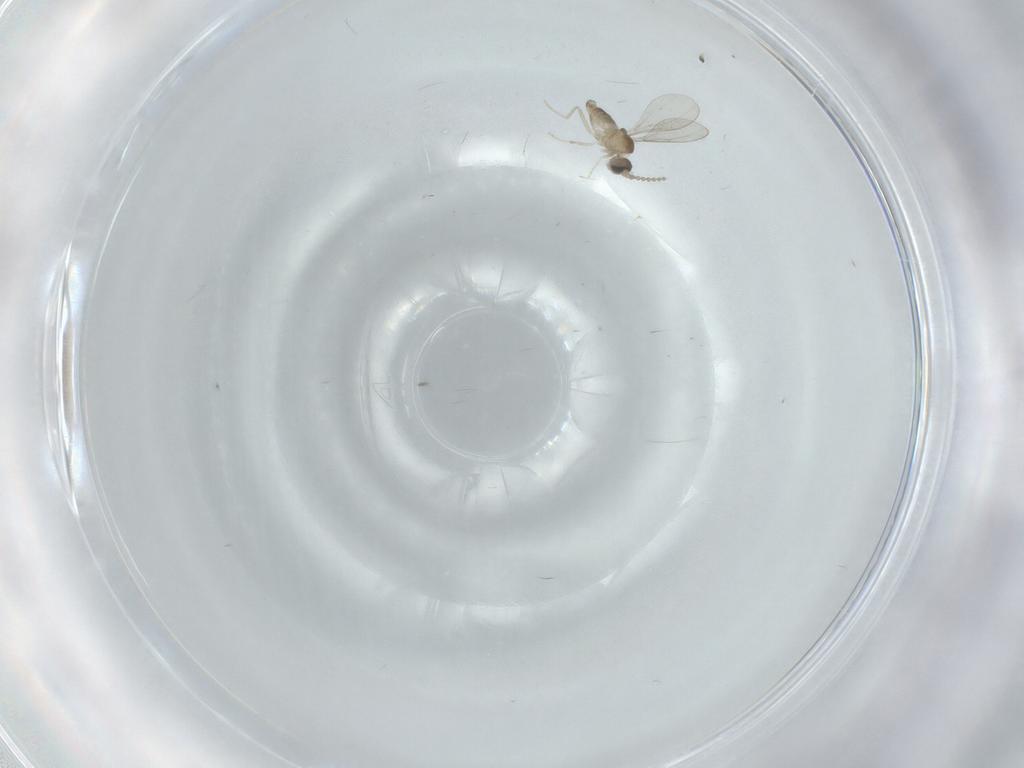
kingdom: Animalia
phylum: Arthropoda
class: Insecta
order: Diptera
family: Cecidomyiidae
